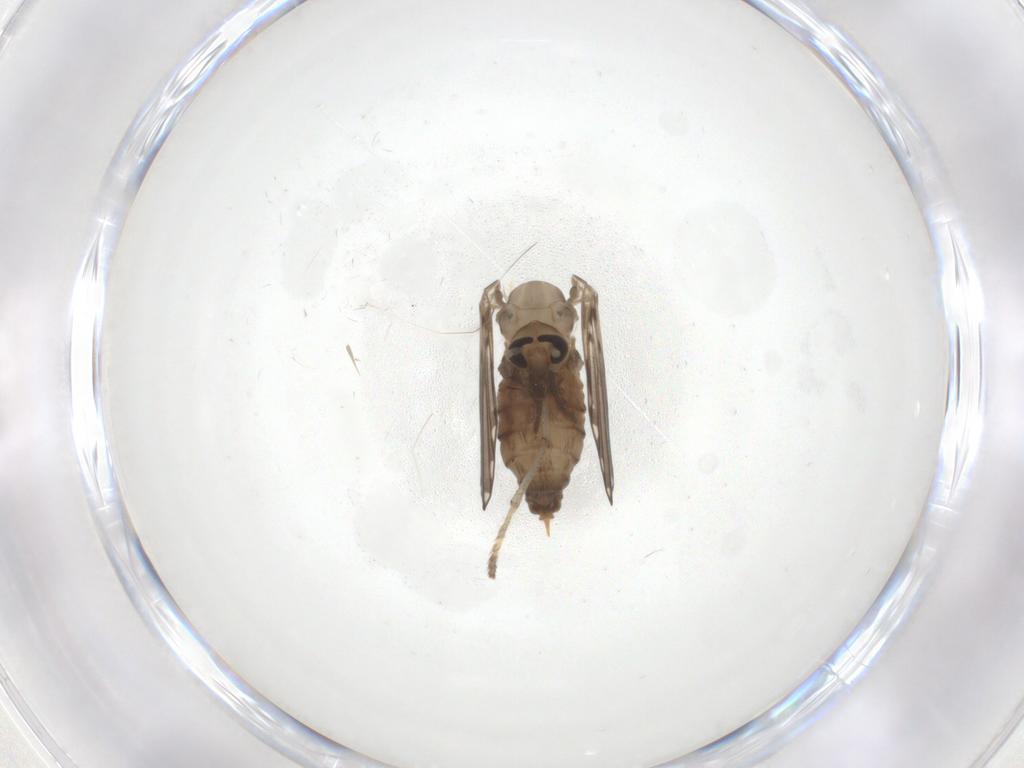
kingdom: Animalia
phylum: Arthropoda
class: Insecta
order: Diptera
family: Psychodidae
